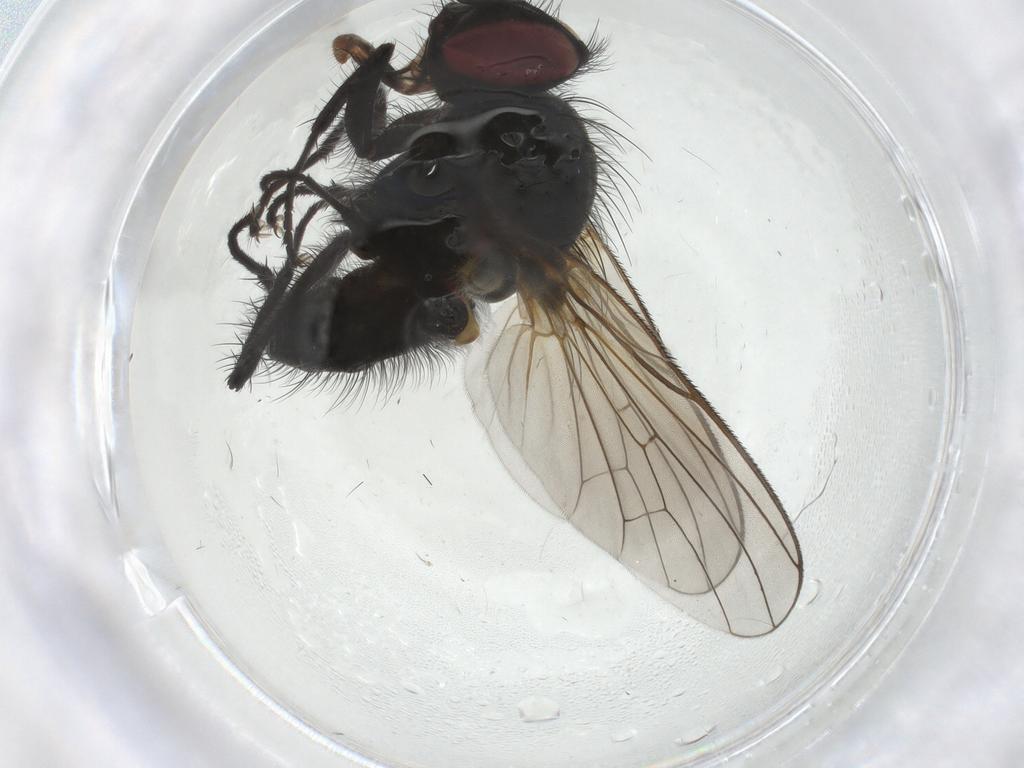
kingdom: Animalia
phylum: Arthropoda
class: Insecta
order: Diptera
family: Anthomyiidae
